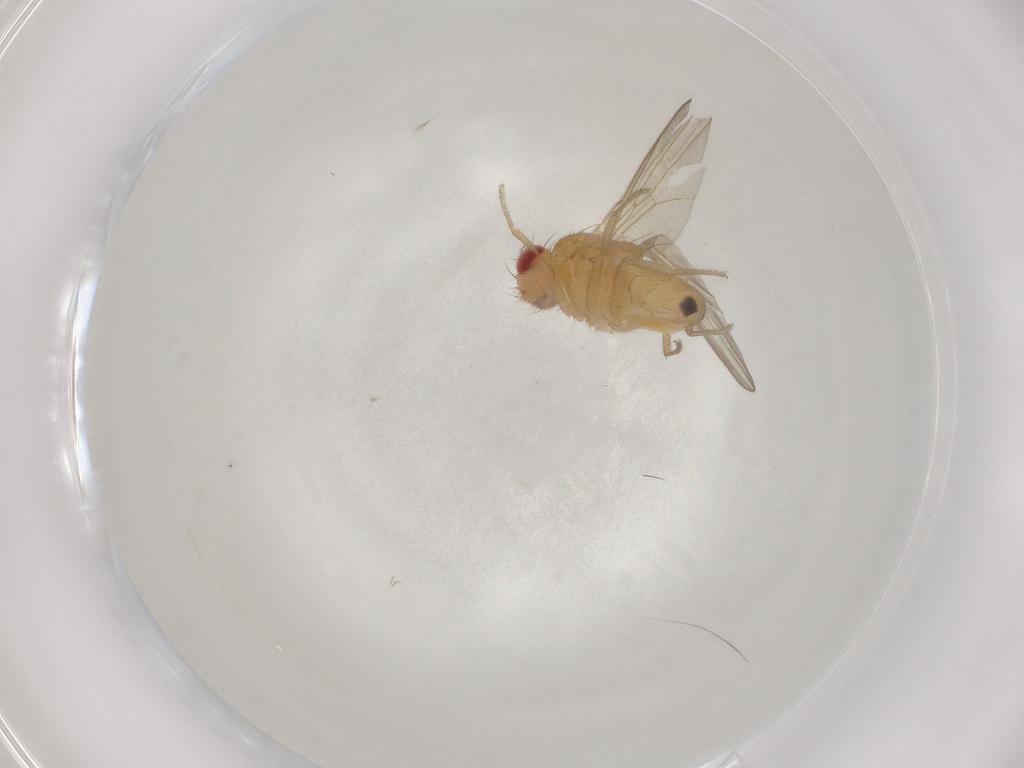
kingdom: Animalia
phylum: Arthropoda
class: Insecta
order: Diptera
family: Drosophilidae
